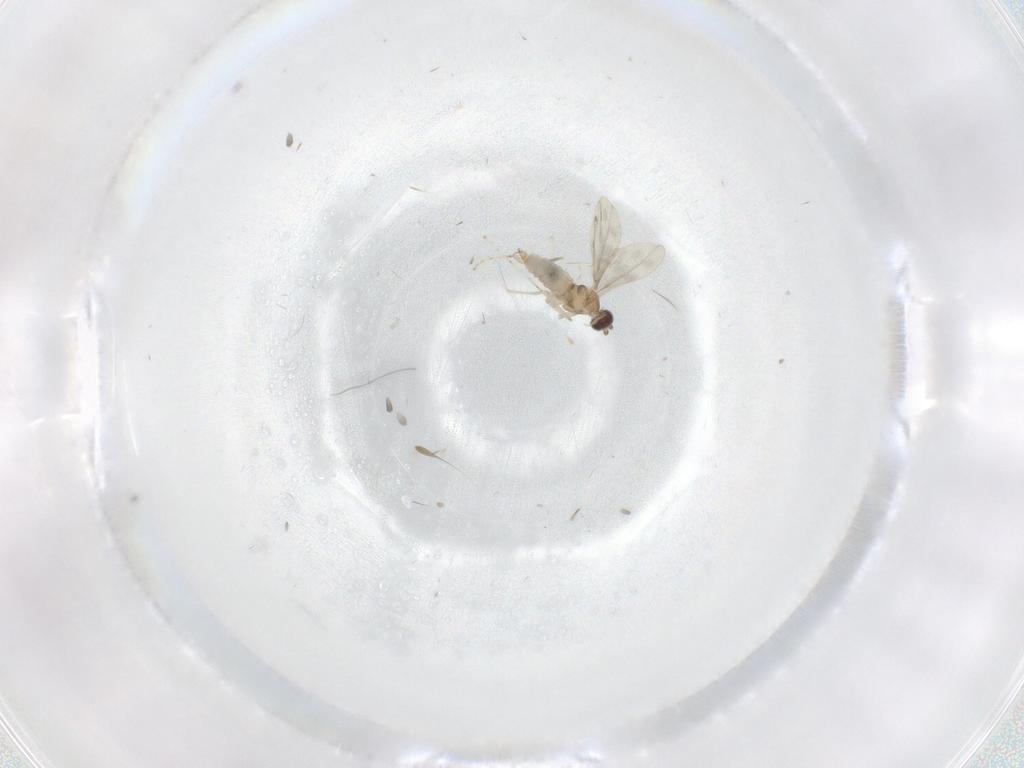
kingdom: Animalia
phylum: Arthropoda
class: Insecta
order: Diptera
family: Cecidomyiidae
